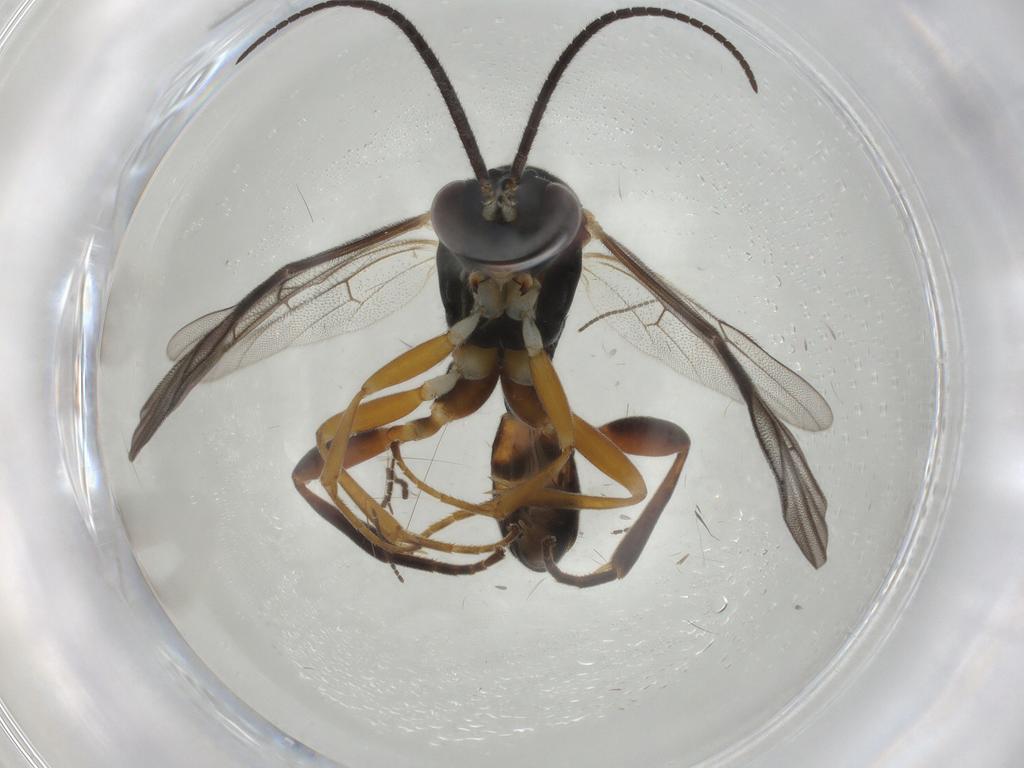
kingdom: Animalia
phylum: Arthropoda
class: Insecta
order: Hymenoptera
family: Ichneumonidae
